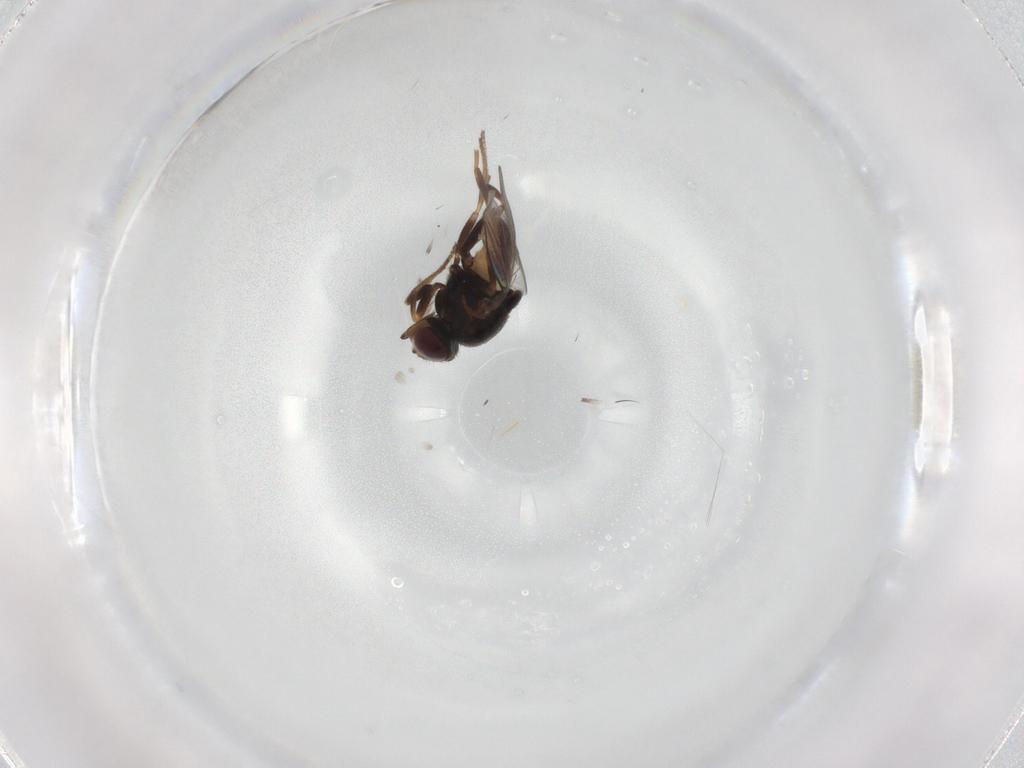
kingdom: Animalia
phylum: Arthropoda
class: Insecta
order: Diptera
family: Chloropidae
